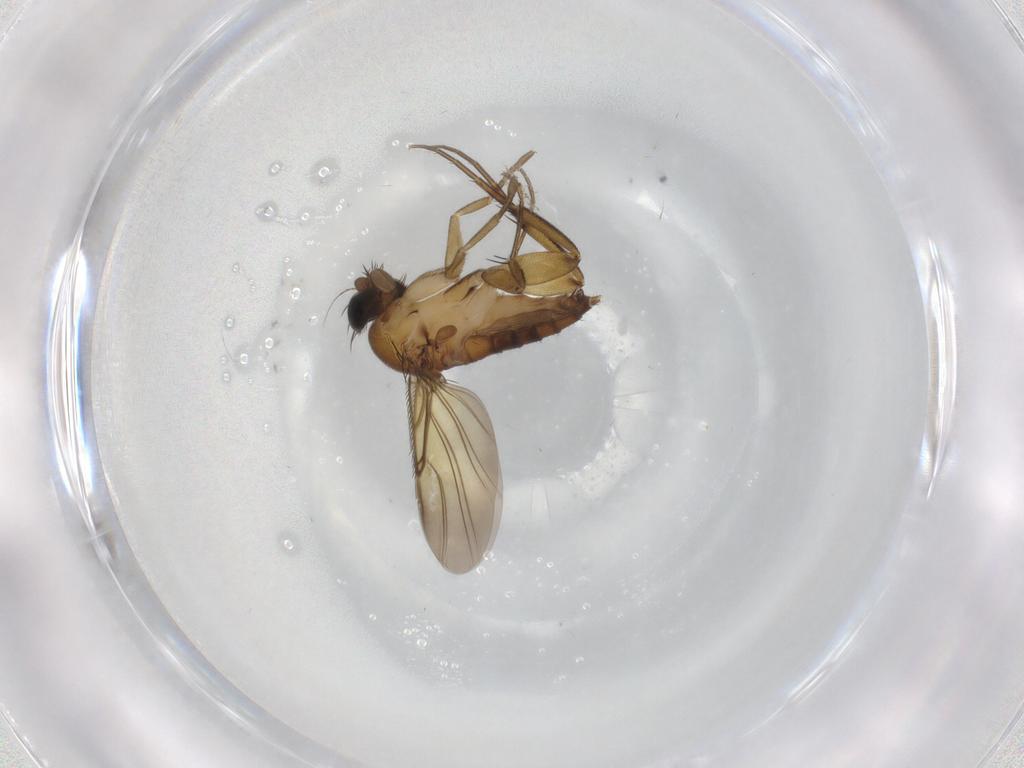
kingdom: Animalia
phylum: Arthropoda
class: Insecta
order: Diptera
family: Phoridae
